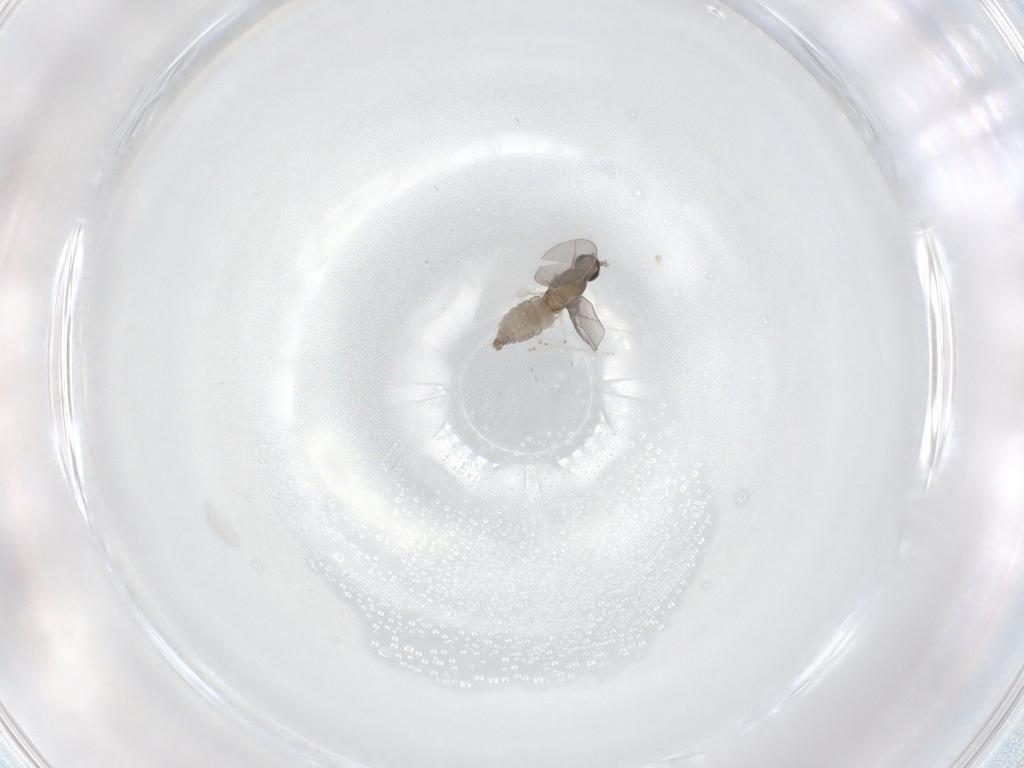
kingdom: Animalia
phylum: Arthropoda
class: Insecta
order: Diptera
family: Cecidomyiidae
